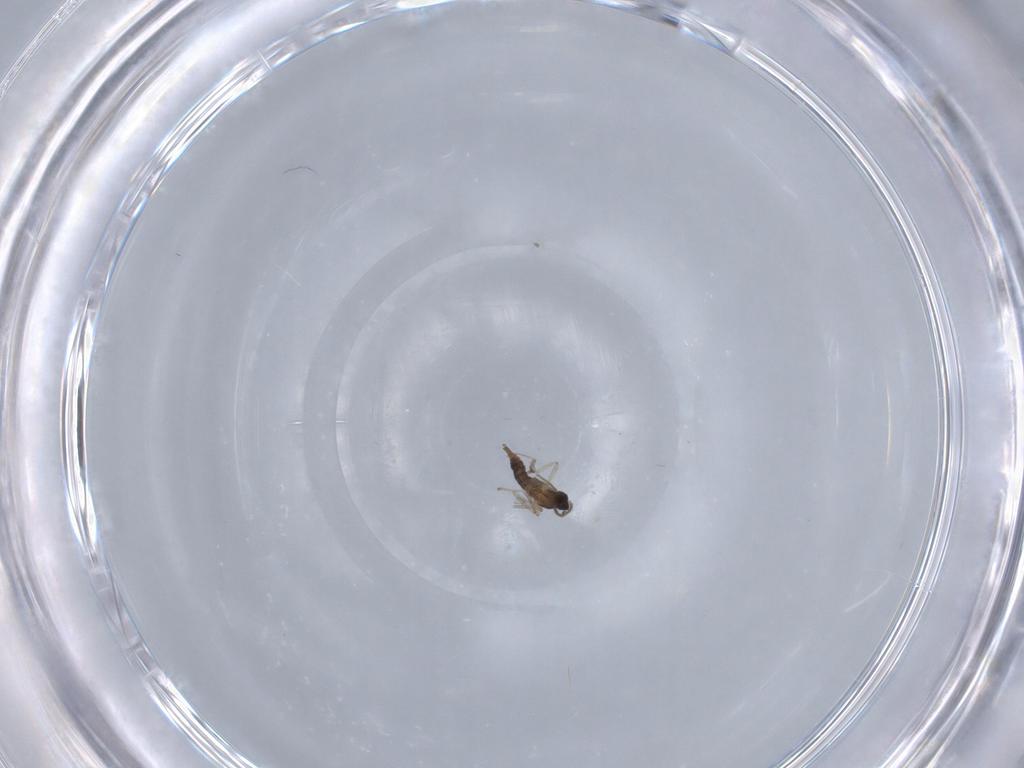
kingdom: Animalia
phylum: Arthropoda
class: Insecta
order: Diptera
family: Cecidomyiidae
